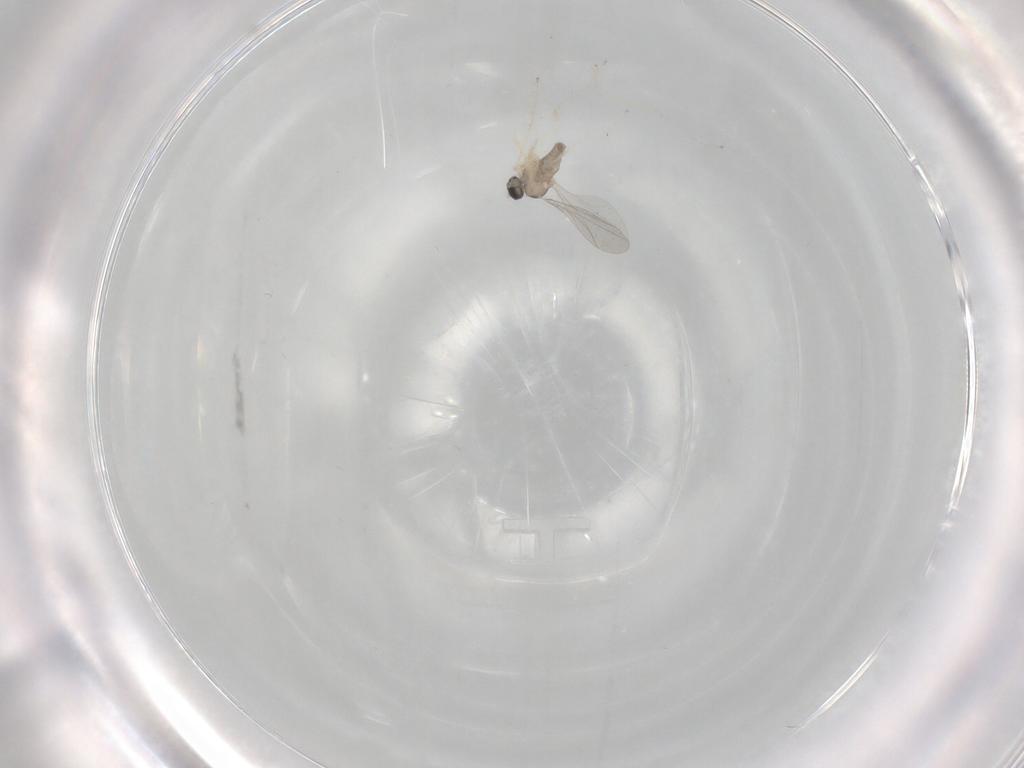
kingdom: Animalia
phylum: Arthropoda
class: Insecta
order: Diptera
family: Cecidomyiidae
